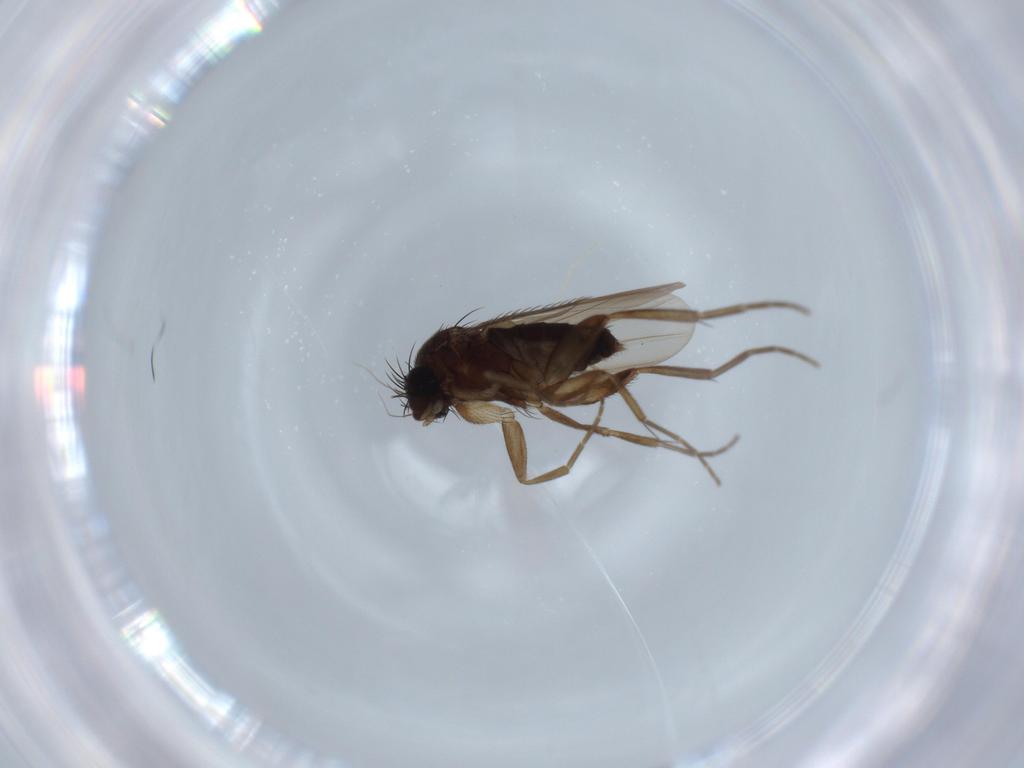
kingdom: Animalia
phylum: Arthropoda
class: Insecta
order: Diptera
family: Phoridae
